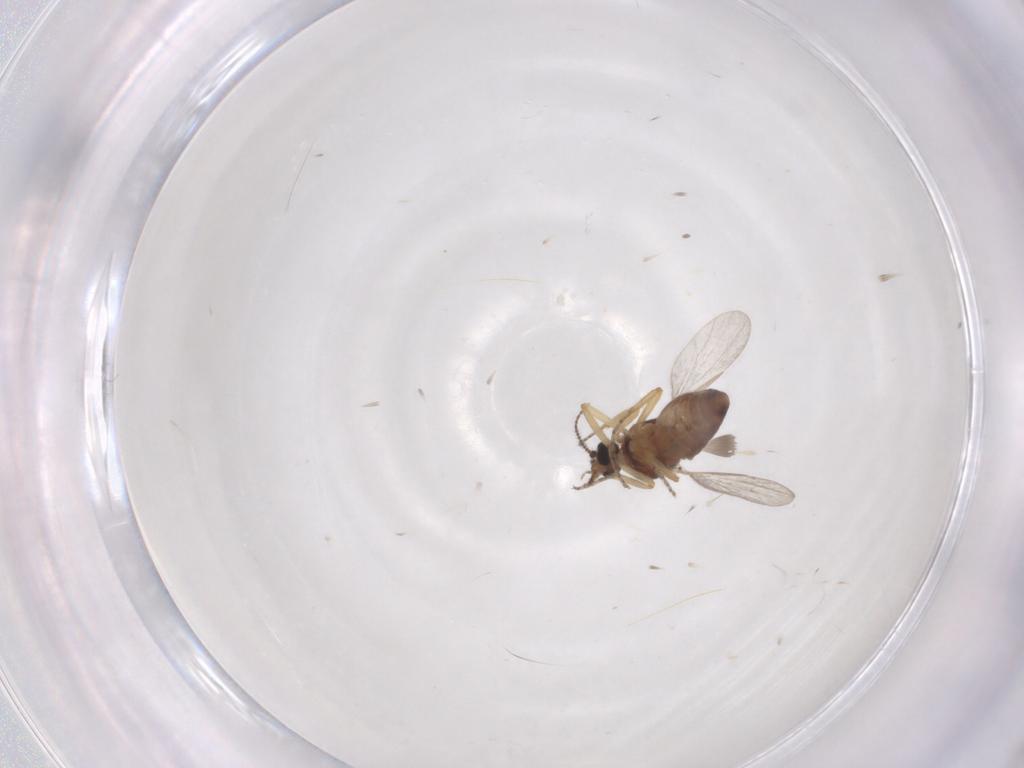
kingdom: Animalia
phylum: Arthropoda
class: Insecta
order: Diptera
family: Ceratopogonidae
